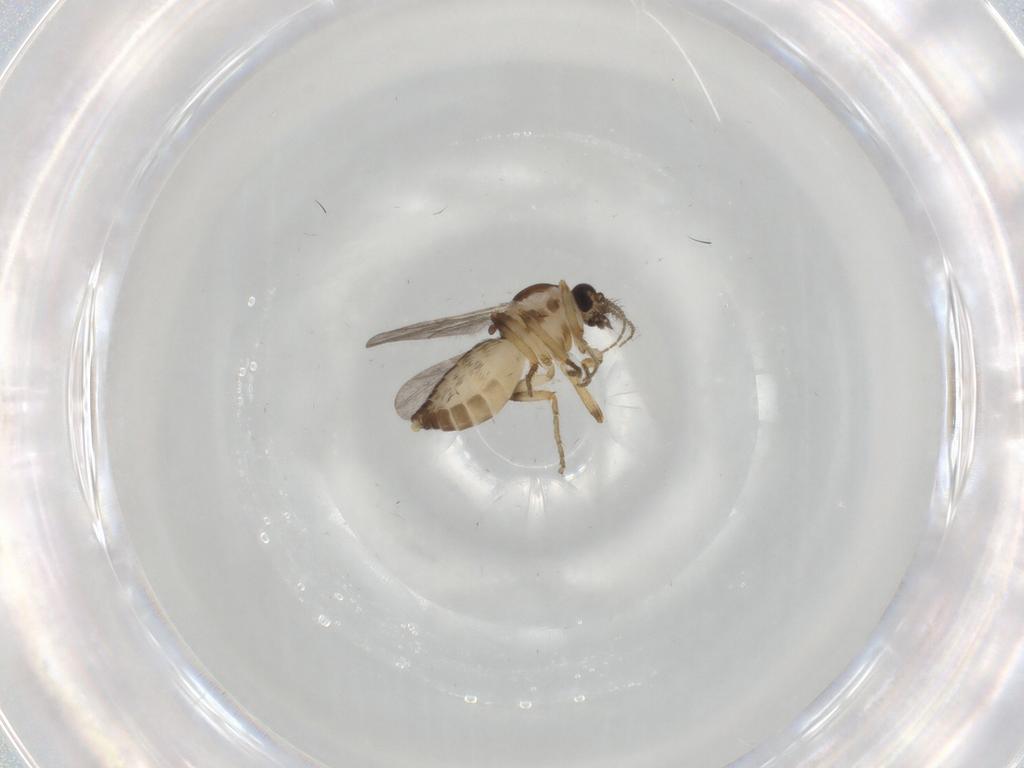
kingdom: Animalia
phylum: Arthropoda
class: Insecta
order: Diptera
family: Ceratopogonidae
